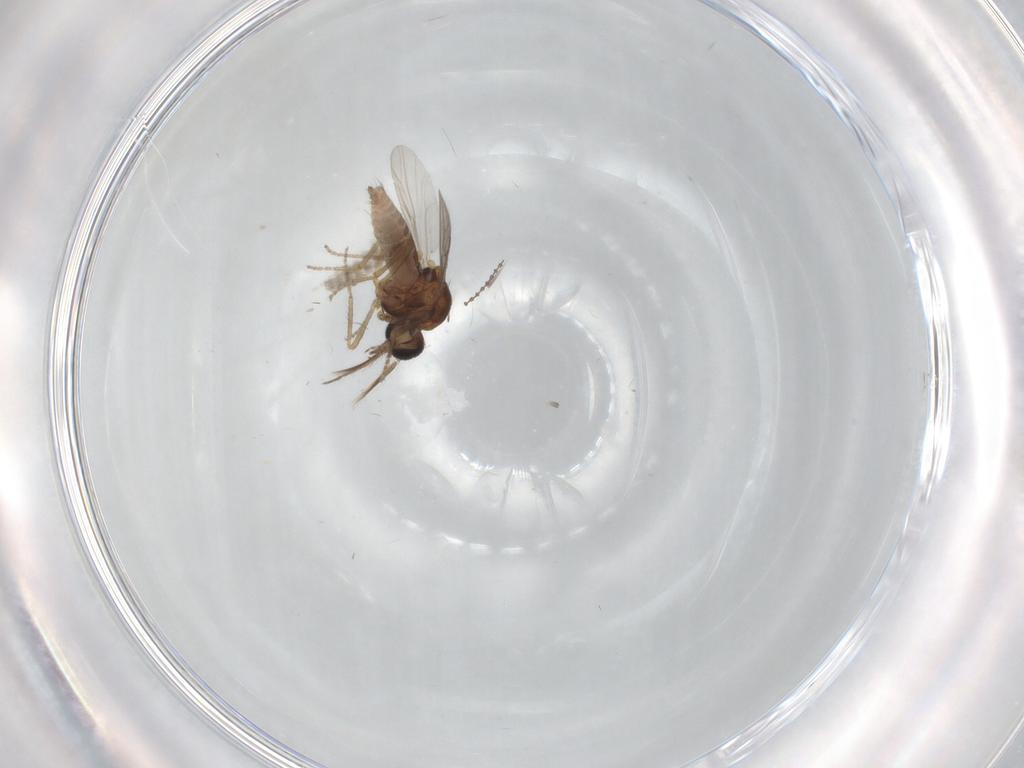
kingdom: Animalia
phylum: Arthropoda
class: Insecta
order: Diptera
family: Ceratopogonidae
